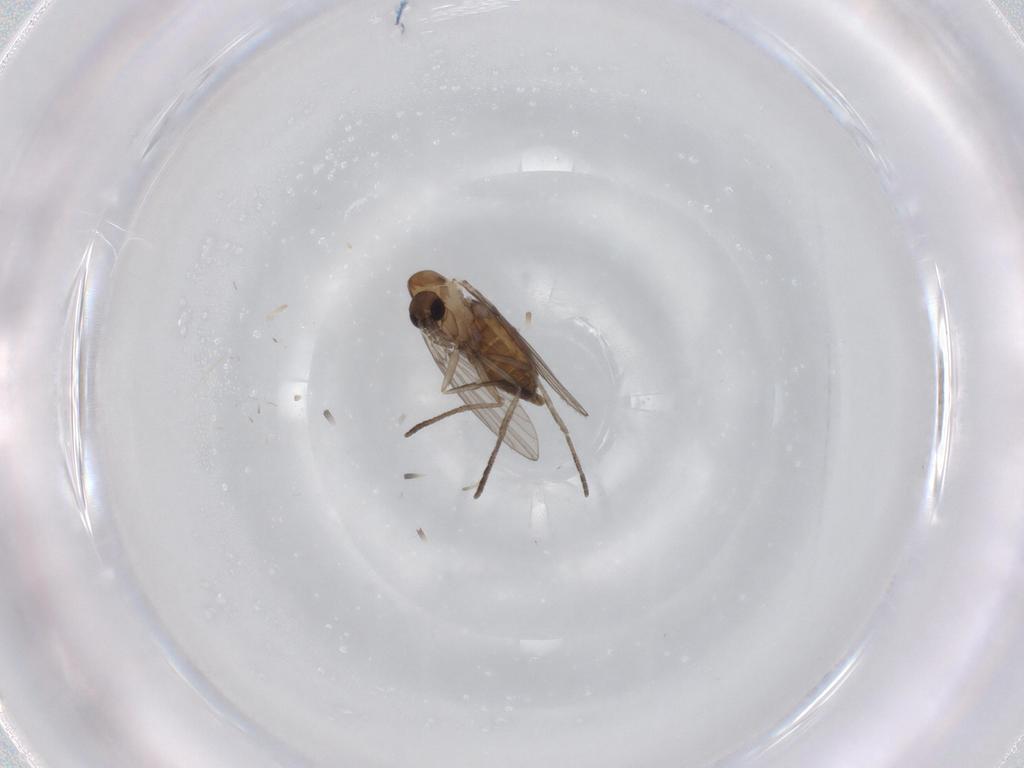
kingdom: Animalia
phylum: Arthropoda
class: Insecta
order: Diptera
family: Psychodidae
